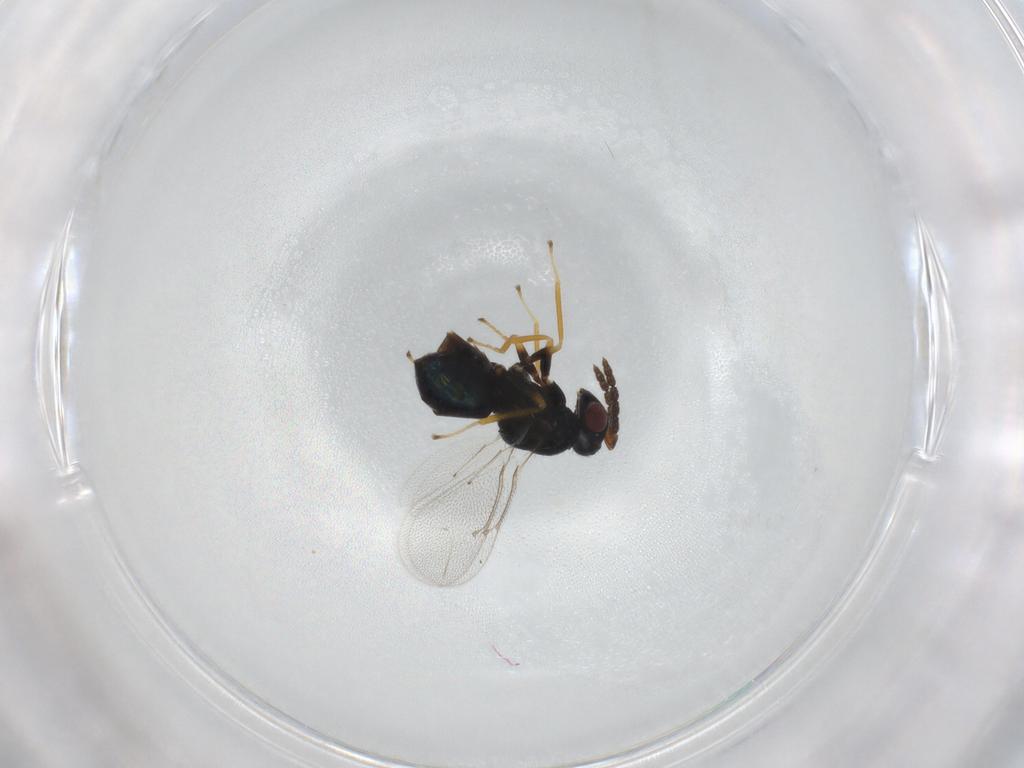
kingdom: Animalia
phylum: Arthropoda
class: Insecta
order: Hymenoptera
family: Eulophidae
